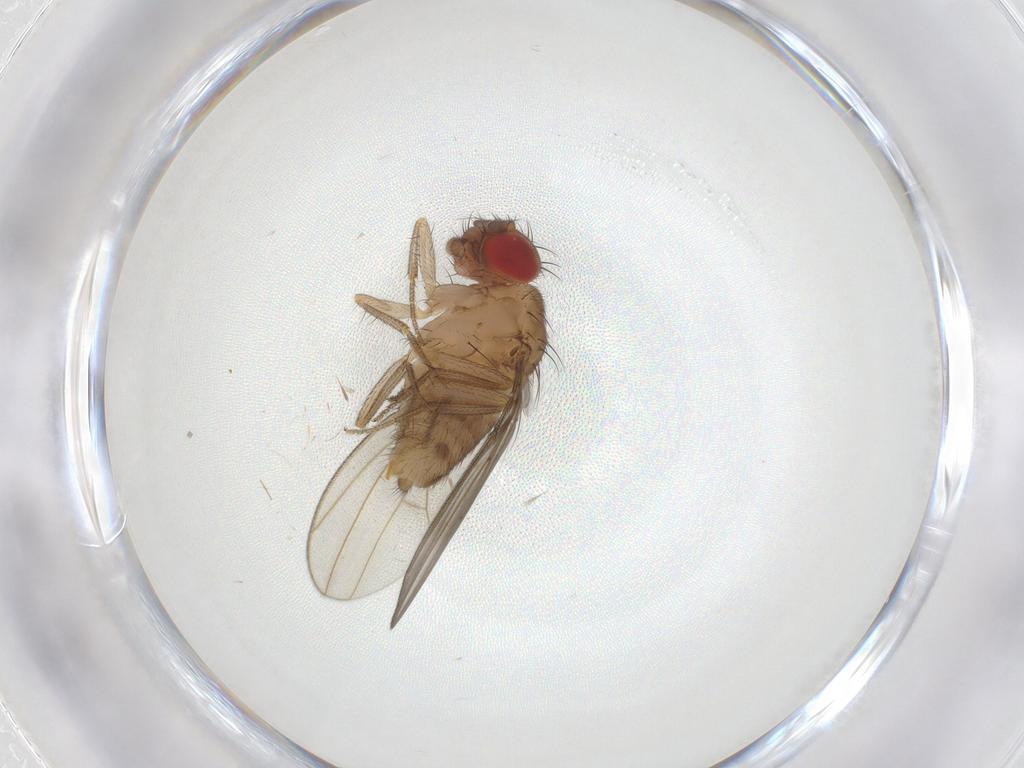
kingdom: Animalia
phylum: Arthropoda
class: Insecta
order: Diptera
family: Drosophilidae
